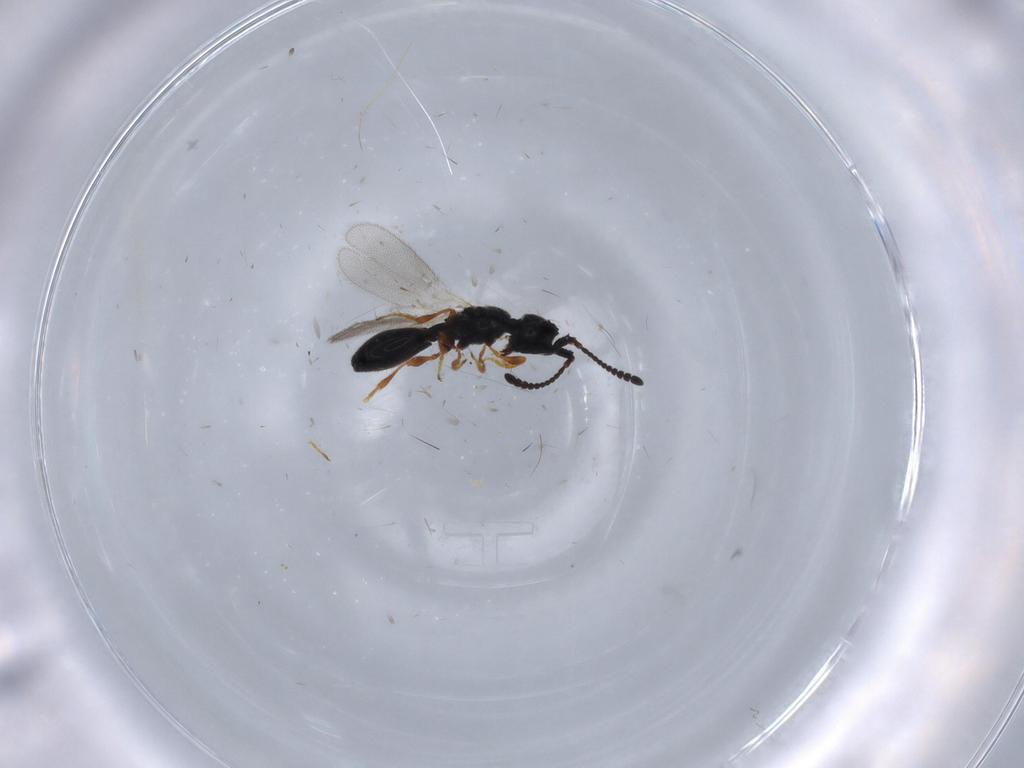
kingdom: Animalia
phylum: Arthropoda
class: Insecta
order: Hymenoptera
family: Diapriidae
